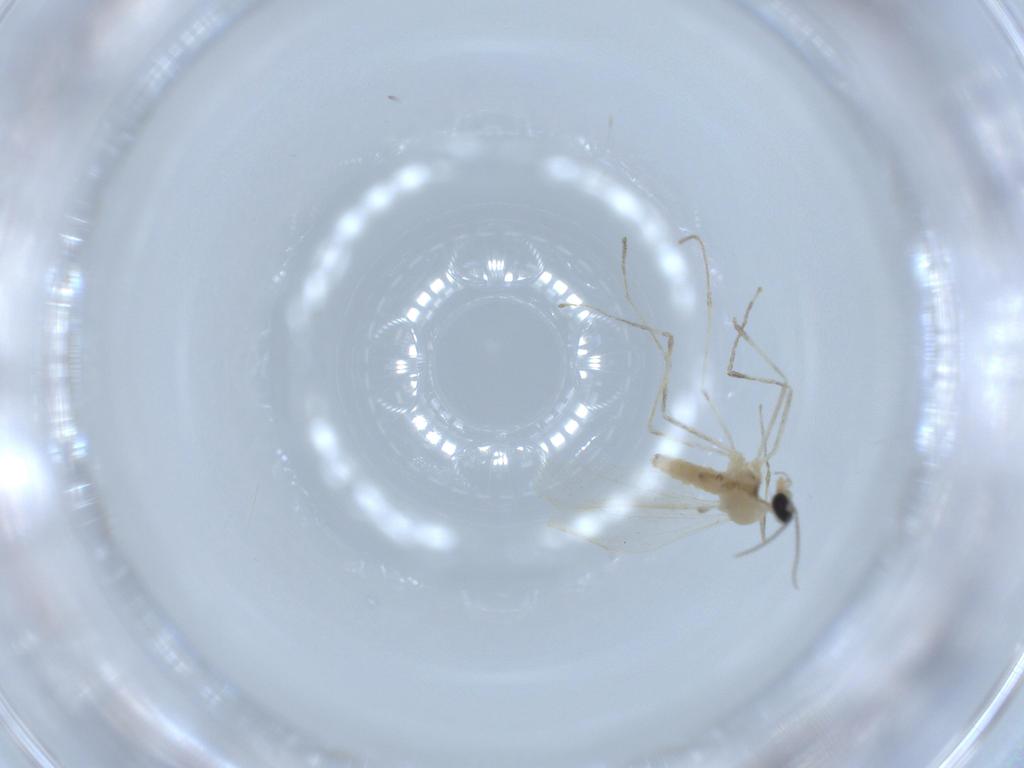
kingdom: Animalia
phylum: Arthropoda
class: Insecta
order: Diptera
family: Cecidomyiidae
